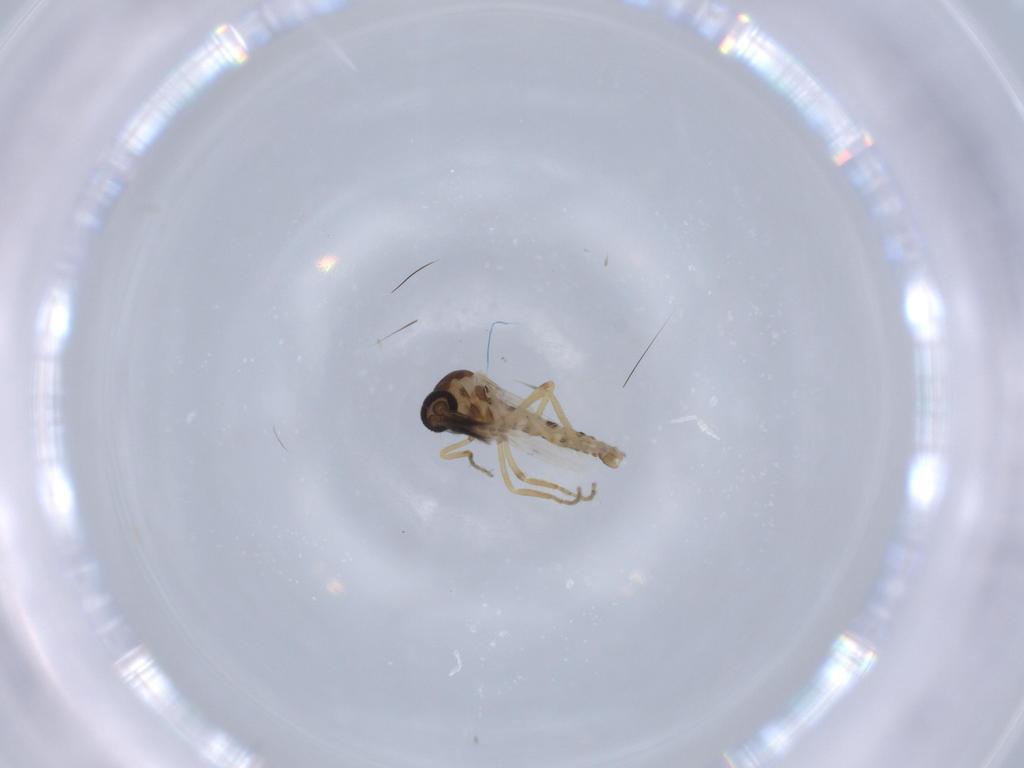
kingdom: Animalia
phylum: Arthropoda
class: Insecta
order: Diptera
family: Ceratopogonidae
